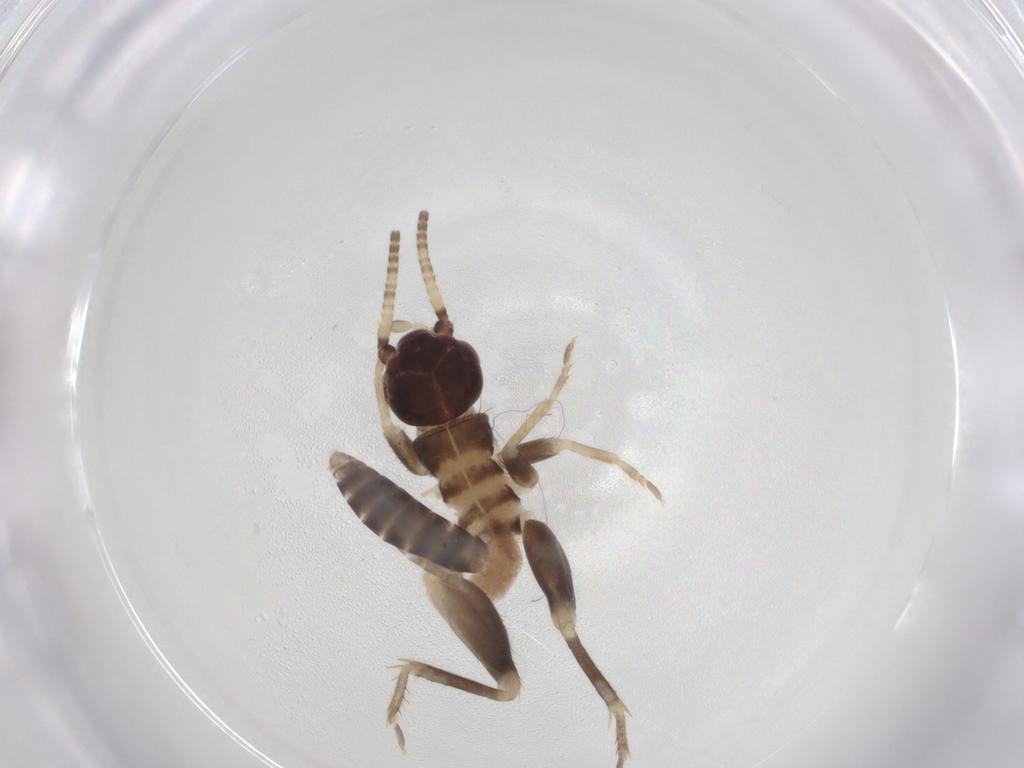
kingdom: Animalia
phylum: Arthropoda
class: Insecta
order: Orthoptera
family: Gryllidae
